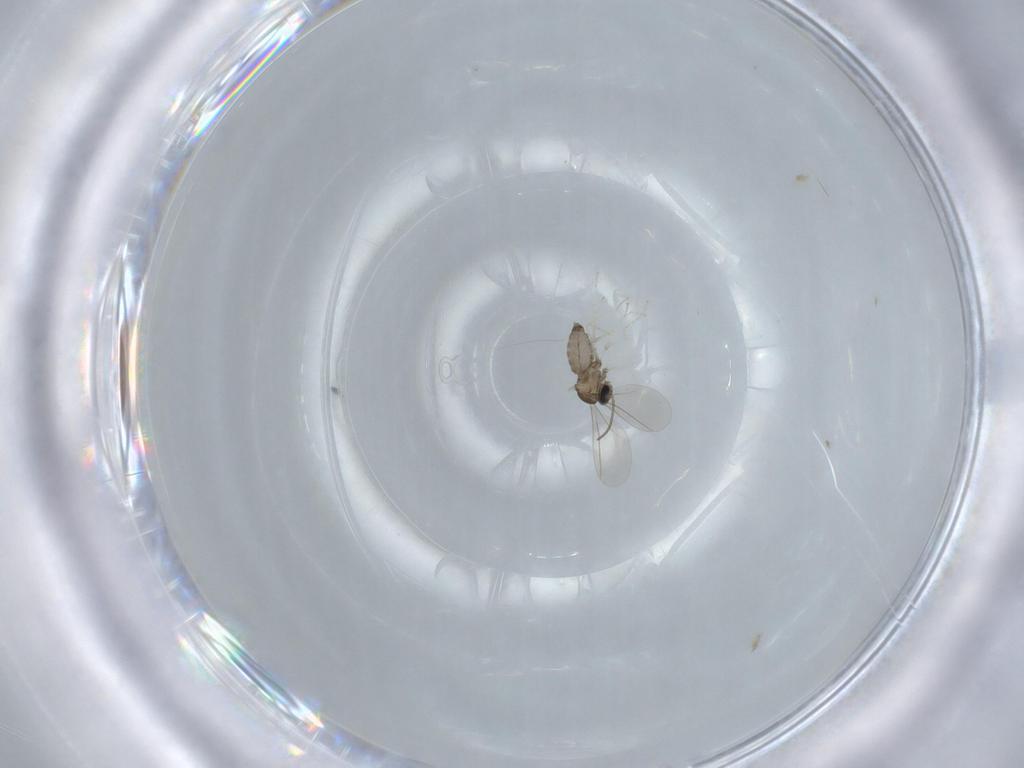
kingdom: Animalia
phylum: Arthropoda
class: Insecta
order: Diptera
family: Cecidomyiidae
